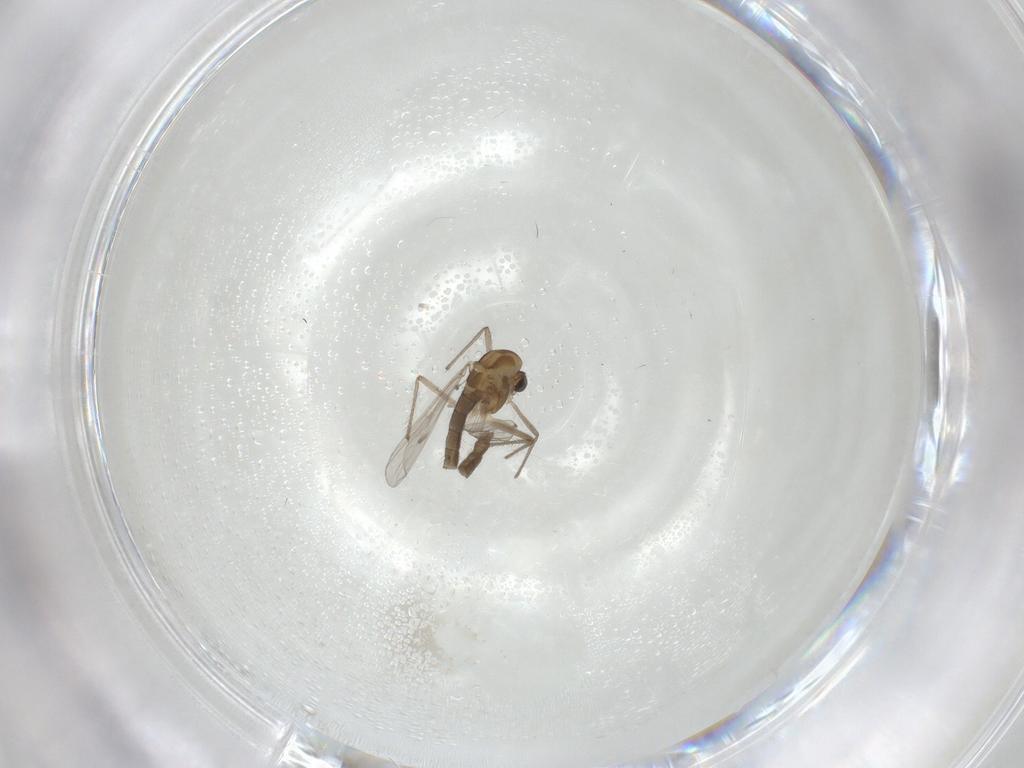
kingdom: Animalia
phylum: Arthropoda
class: Insecta
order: Diptera
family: Chironomidae
